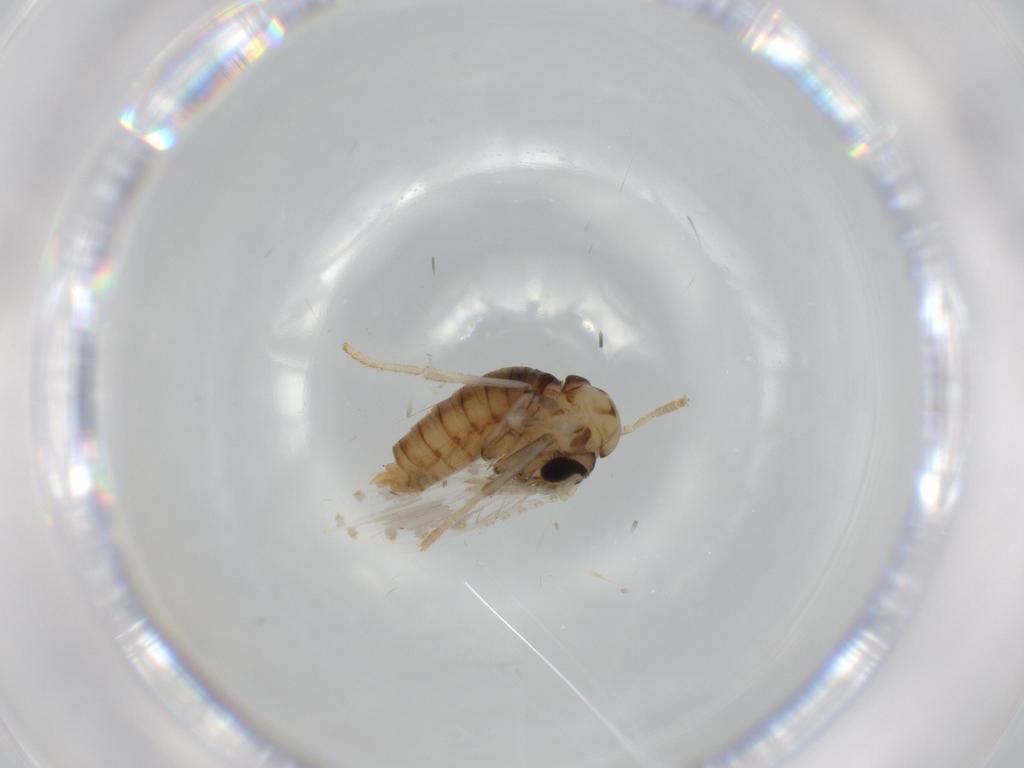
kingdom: Animalia
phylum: Arthropoda
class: Insecta
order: Diptera
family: Psychodidae
